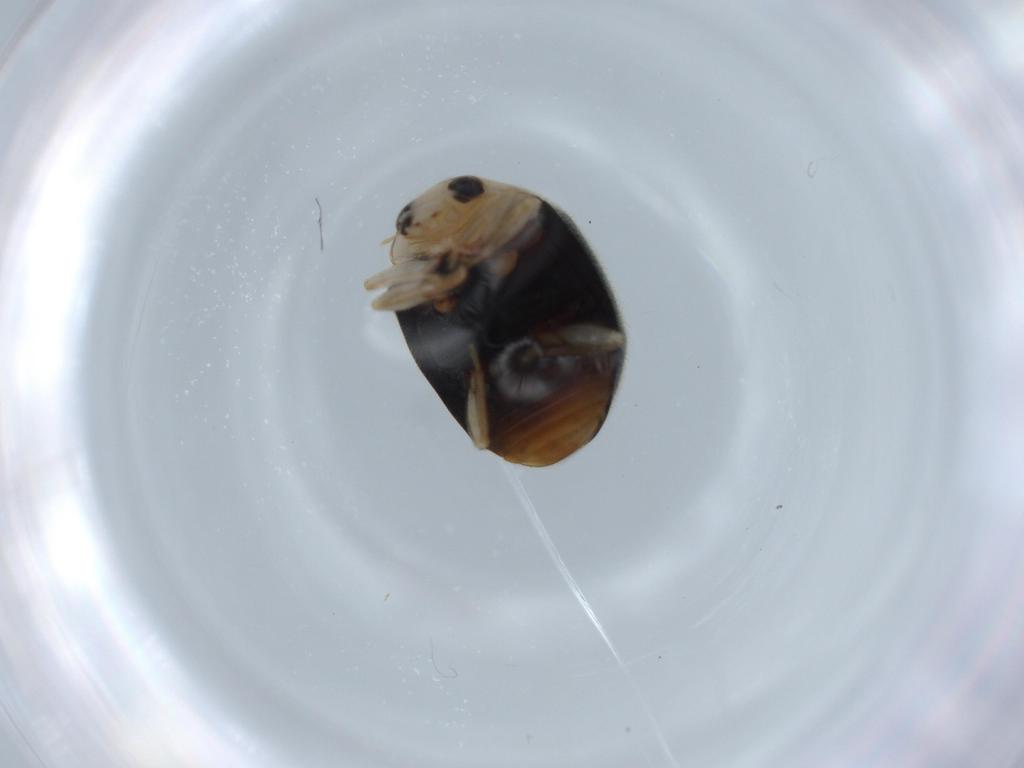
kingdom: Animalia
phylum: Arthropoda
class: Insecta
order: Coleoptera
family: Coccinellidae
